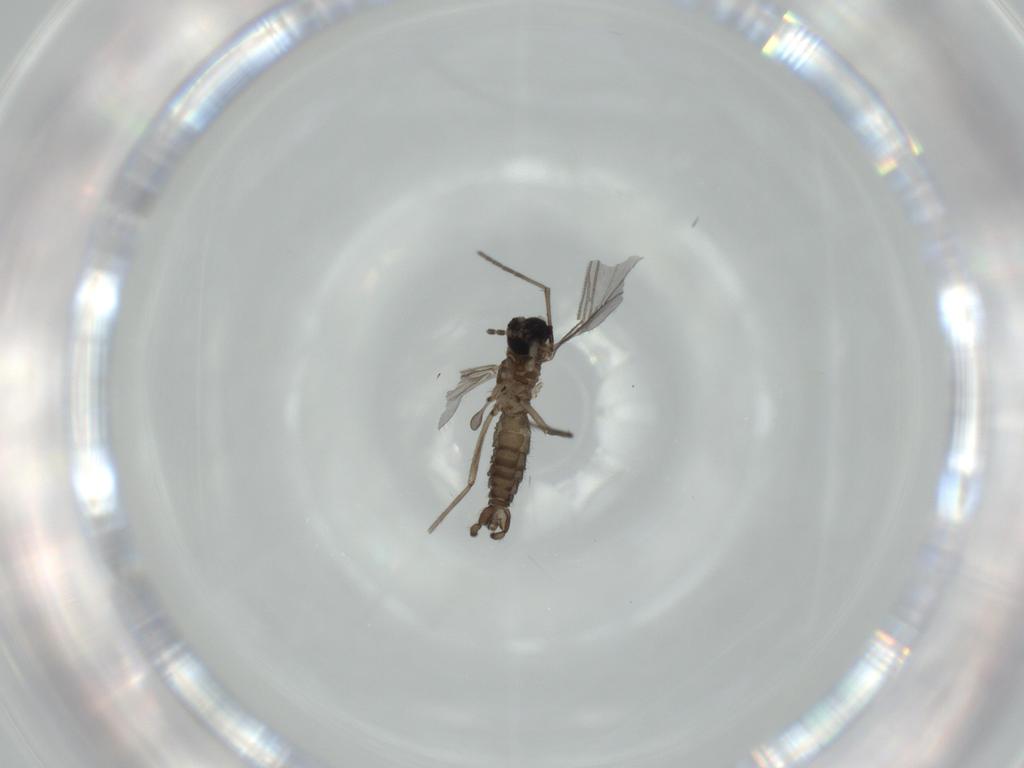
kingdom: Animalia
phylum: Arthropoda
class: Insecta
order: Diptera
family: Sciaridae
